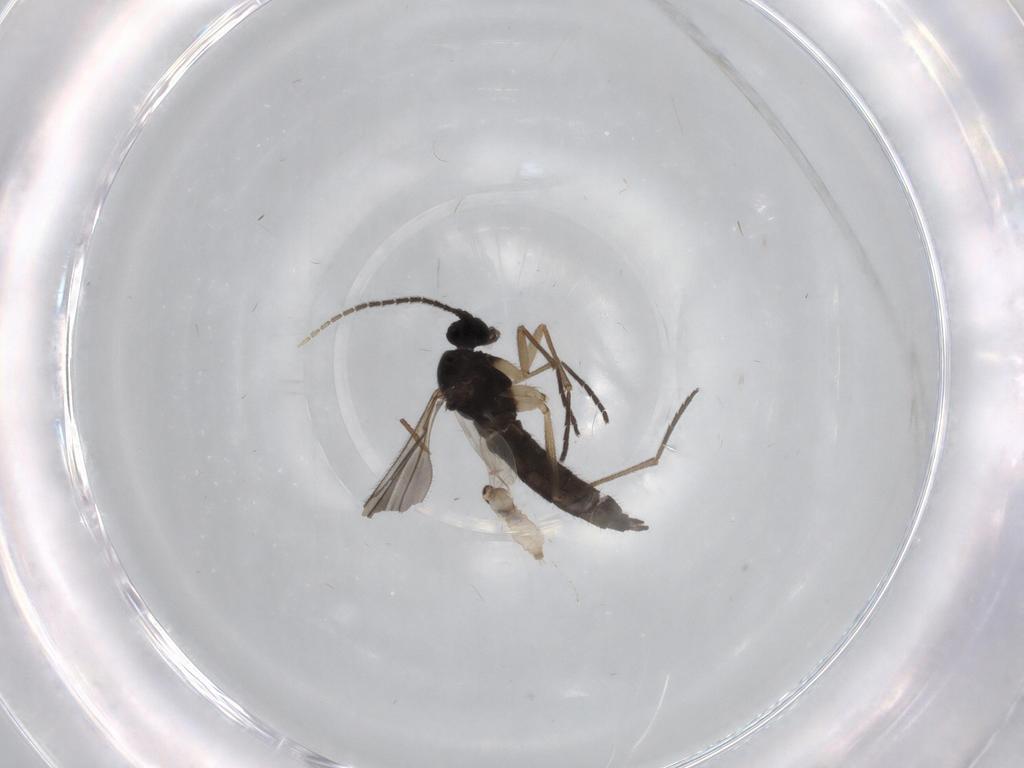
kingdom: Animalia
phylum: Arthropoda
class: Insecta
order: Diptera
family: Sciaridae
